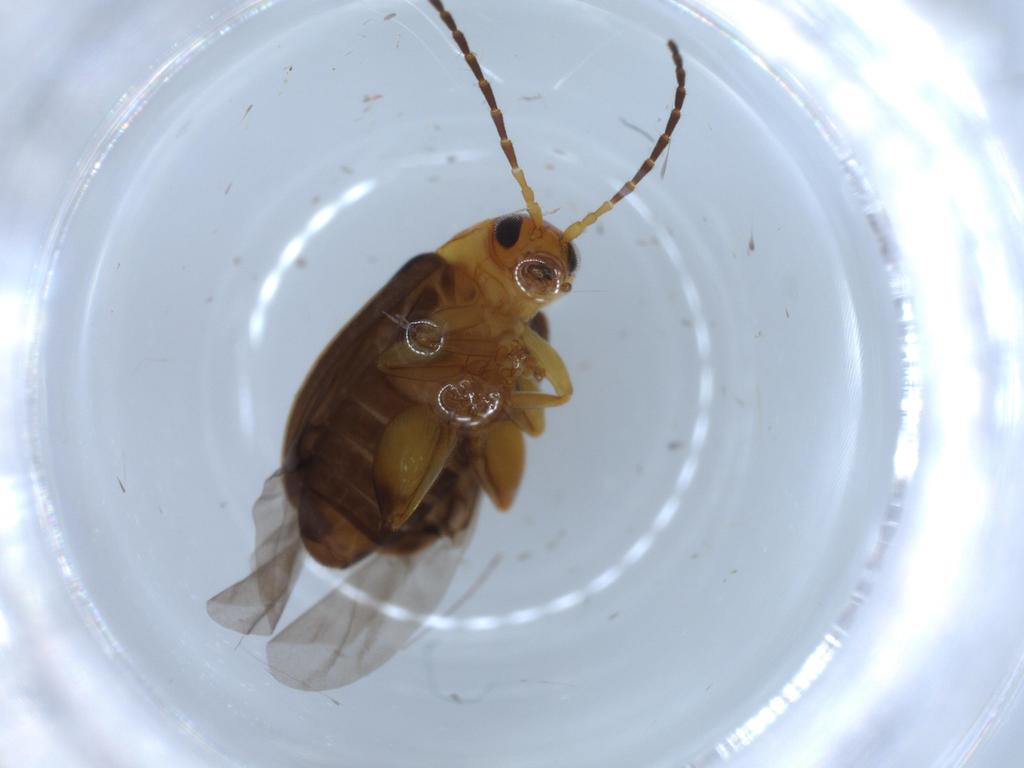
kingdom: Animalia
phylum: Arthropoda
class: Insecta
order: Coleoptera
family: Chrysomelidae
